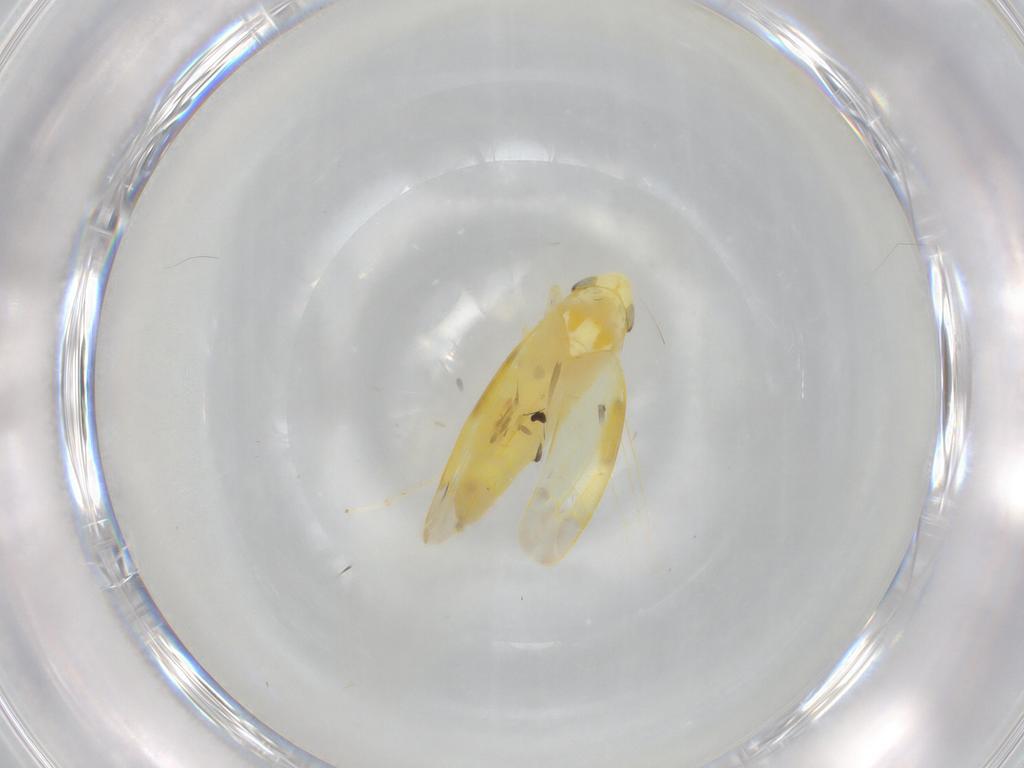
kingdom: Animalia
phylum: Arthropoda
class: Insecta
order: Hemiptera
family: Cicadellidae
